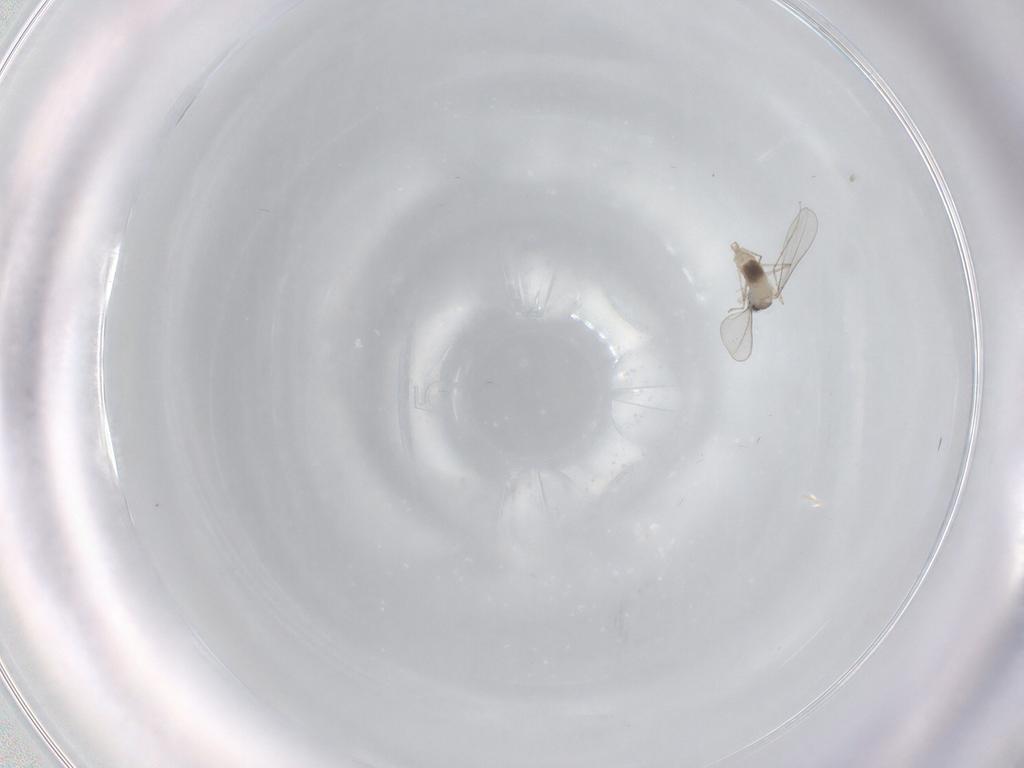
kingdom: Animalia
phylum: Arthropoda
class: Insecta
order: Diptera
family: Cecidomyiidae
